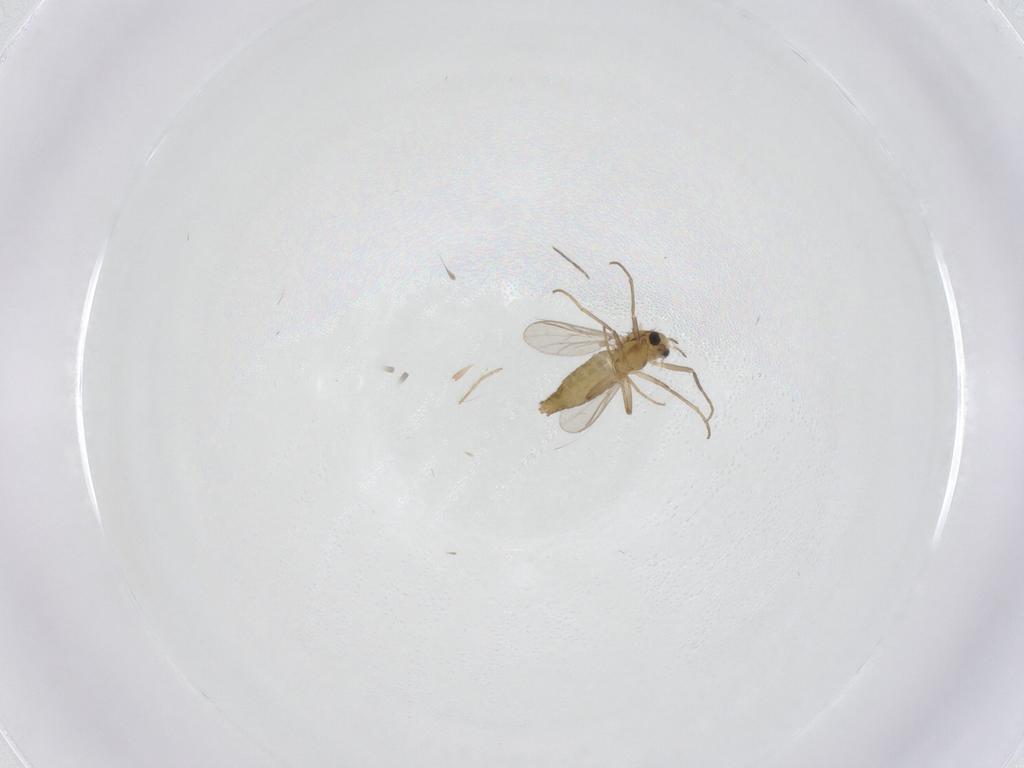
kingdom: Animalia
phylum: Arthropoda
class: Insecta
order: Diptera
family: Chironomidae
